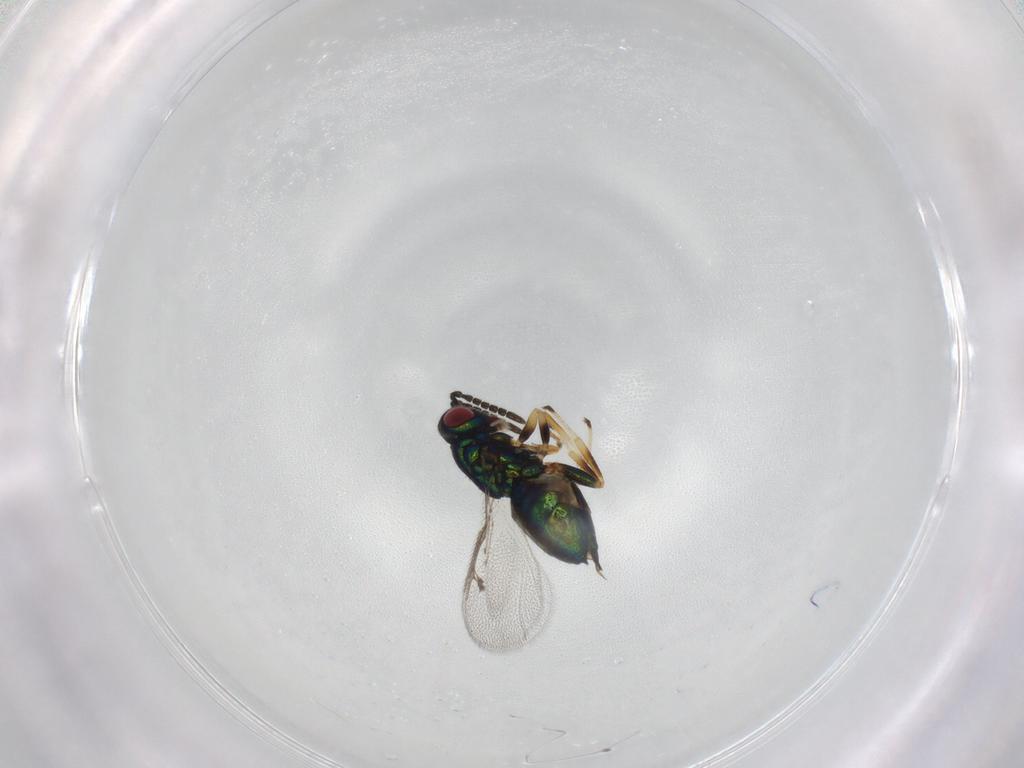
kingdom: Animalia
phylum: Arthropoda
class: Insecta
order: Hymenoptera
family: Pteromalidae
